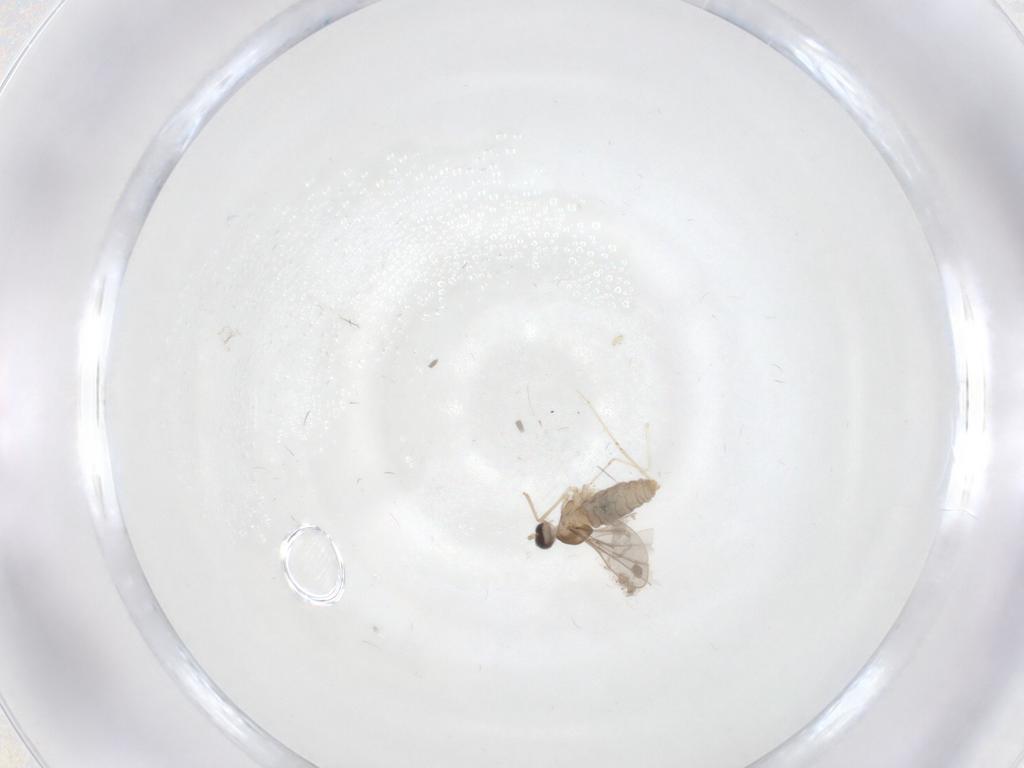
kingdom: Animalia
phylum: Arthropoda
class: Insecta
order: Diptera
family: Cecidomyiidae
